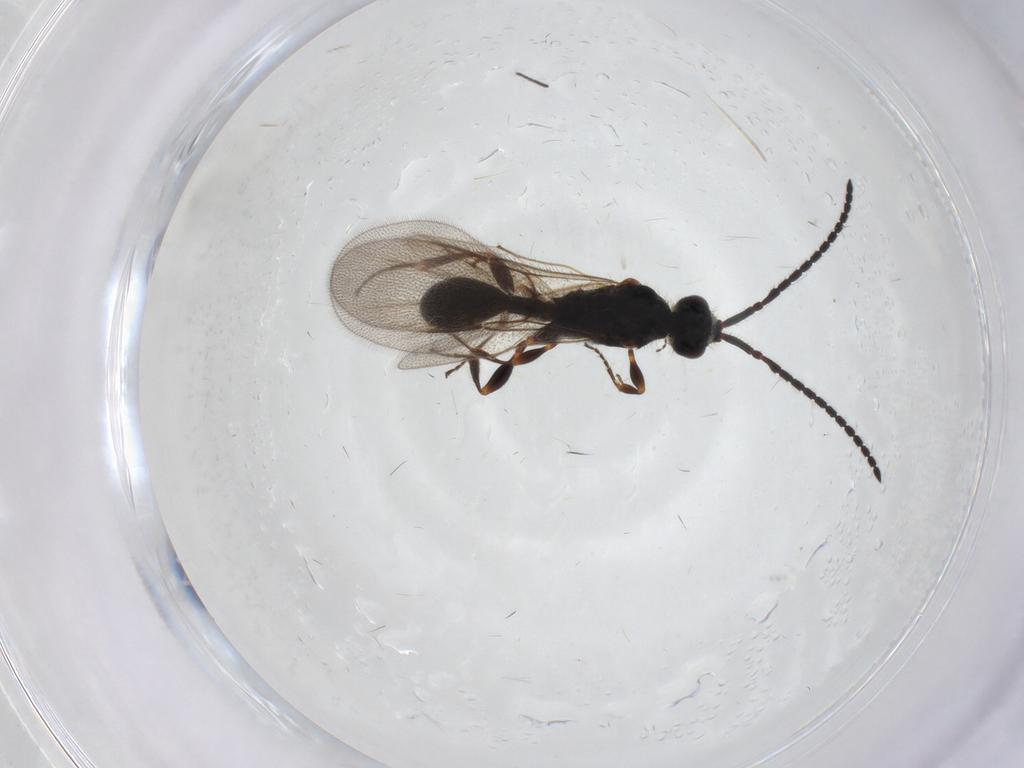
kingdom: Animalia
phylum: Arthropoda
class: Insecta
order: Hymenoptera
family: Diapriidae
